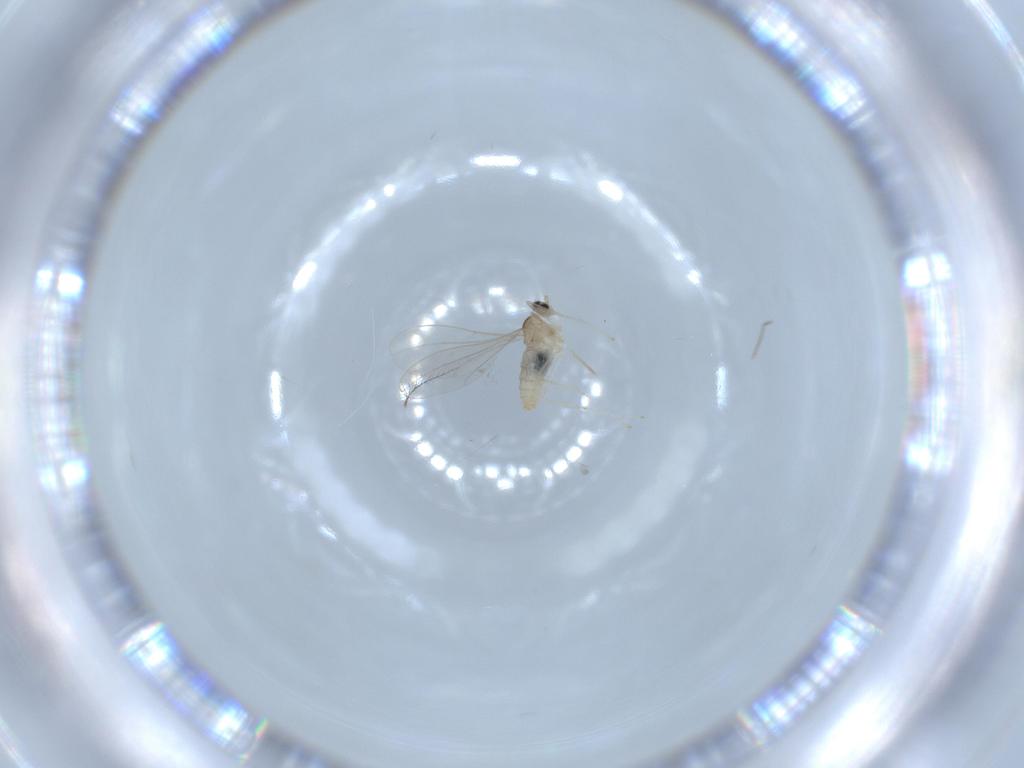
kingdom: Animalia
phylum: Arthropoda
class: Insecta
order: Diptera
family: Cecidomyiidae
